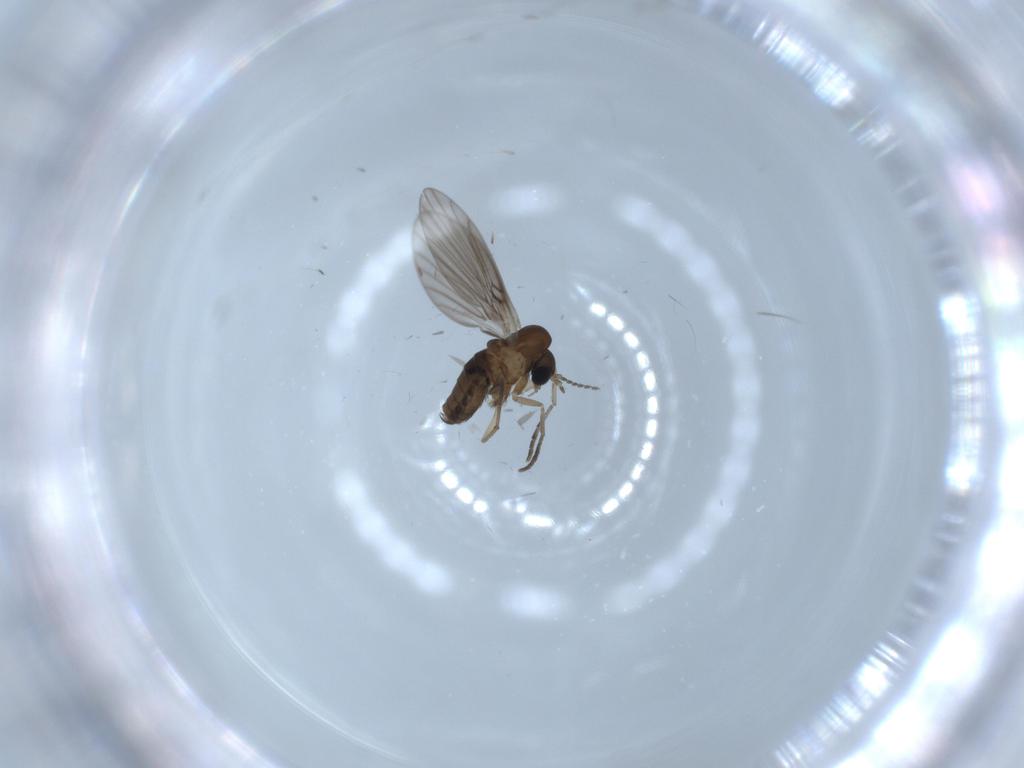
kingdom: Animalia
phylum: Arthropoda
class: Insecta
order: Diptera
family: Psychodidae
